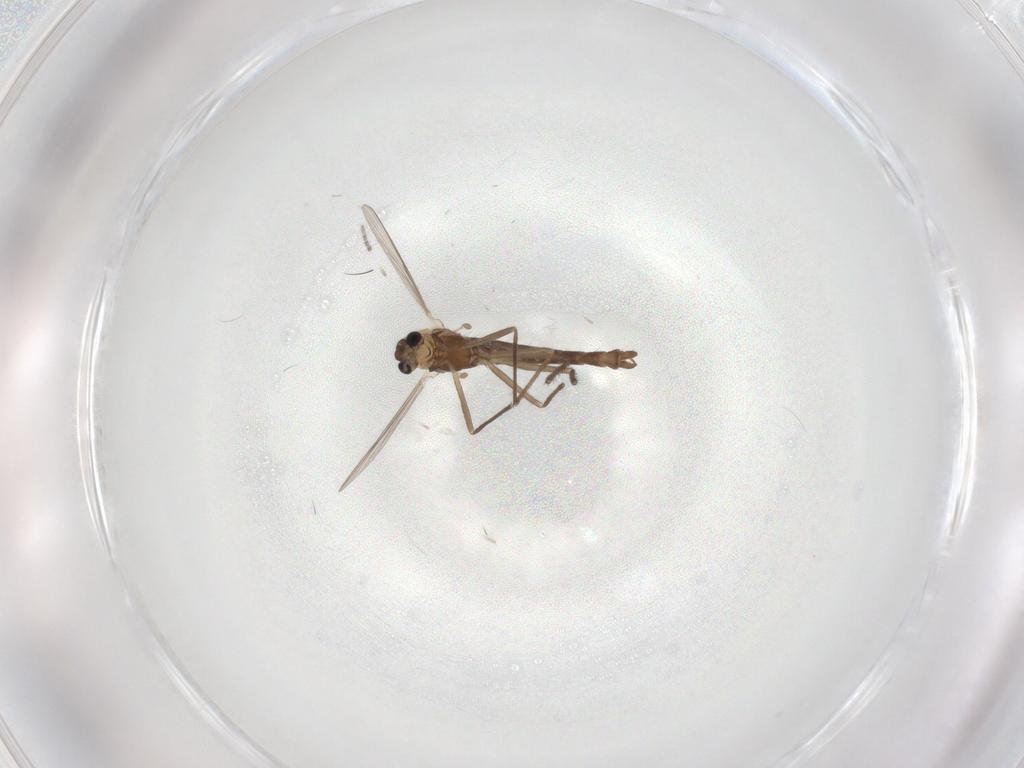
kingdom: Animalia
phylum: Arthropoda
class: Insecta
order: Diptera
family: Chironomidae
